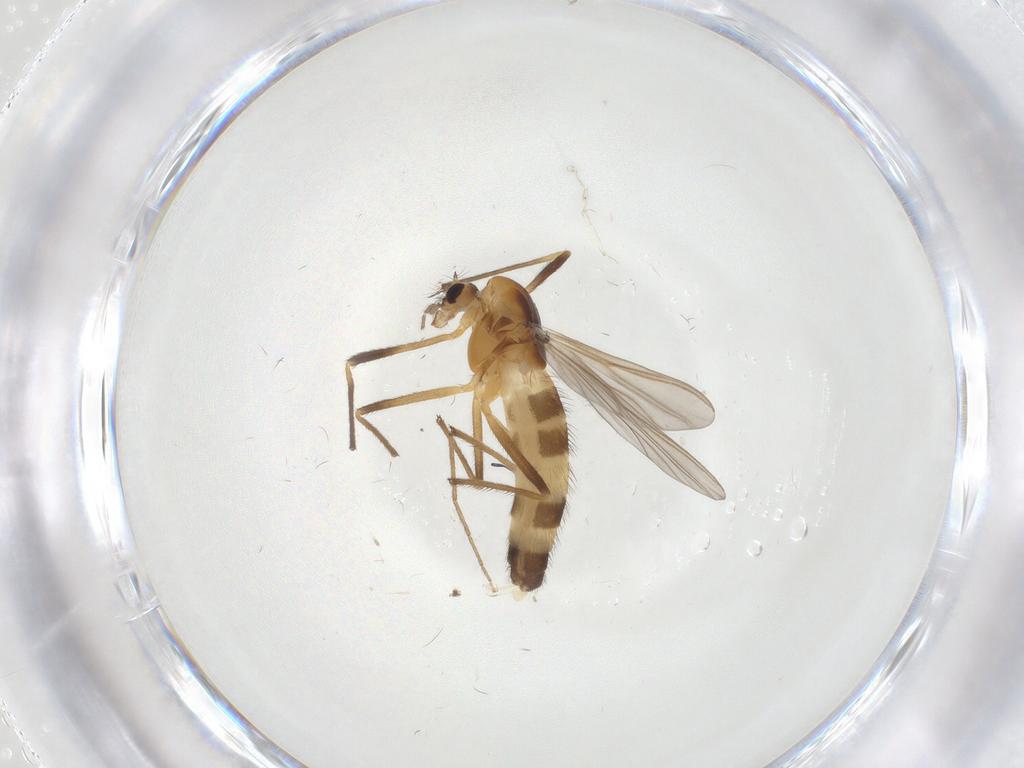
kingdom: Animalia
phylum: Arthropoda
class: Insecta
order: Diptera
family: Chironomidae
